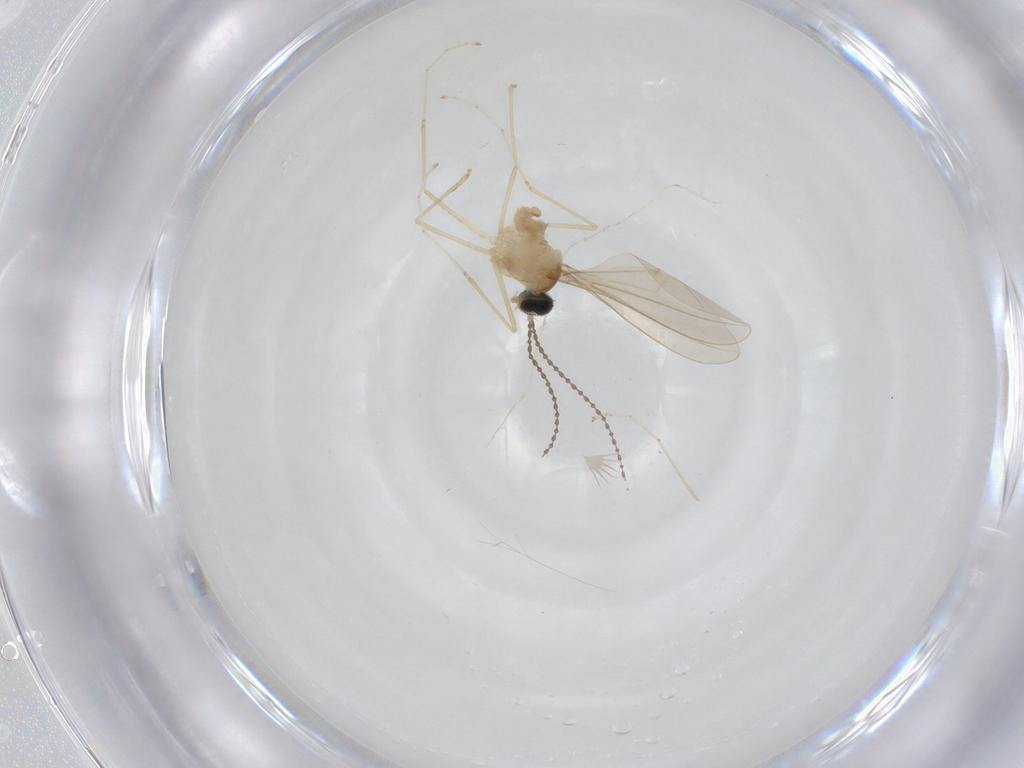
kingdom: Animalia
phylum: Arthropoda
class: Insecta
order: Diptera
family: Cecidomyiidae
